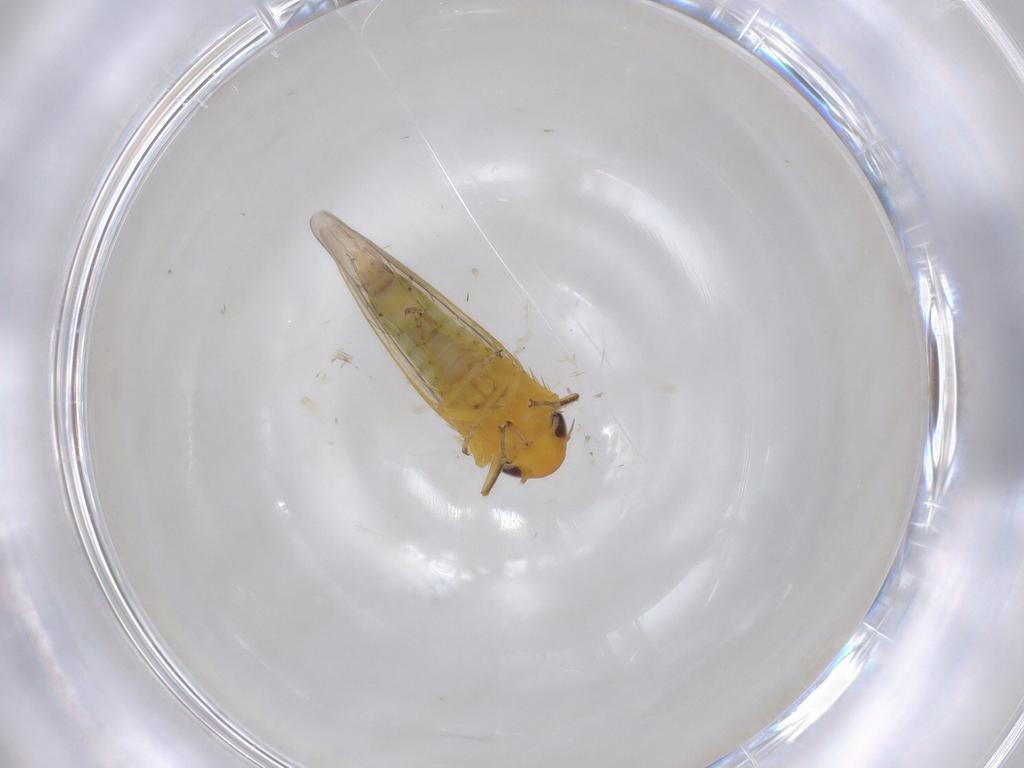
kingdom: Animalia
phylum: Arthropoda
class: Insecta
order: Hemiptera
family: Cicadellidae
